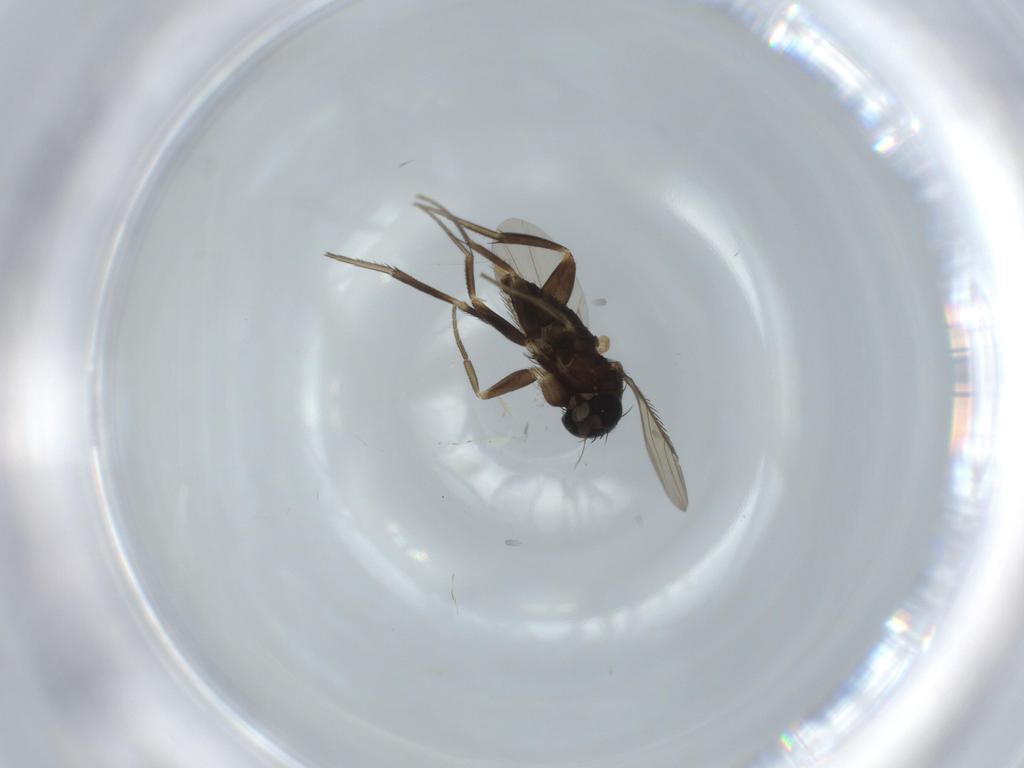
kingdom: Animalia
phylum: Arthropoda
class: Insecta
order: Diptera
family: Phoridae
